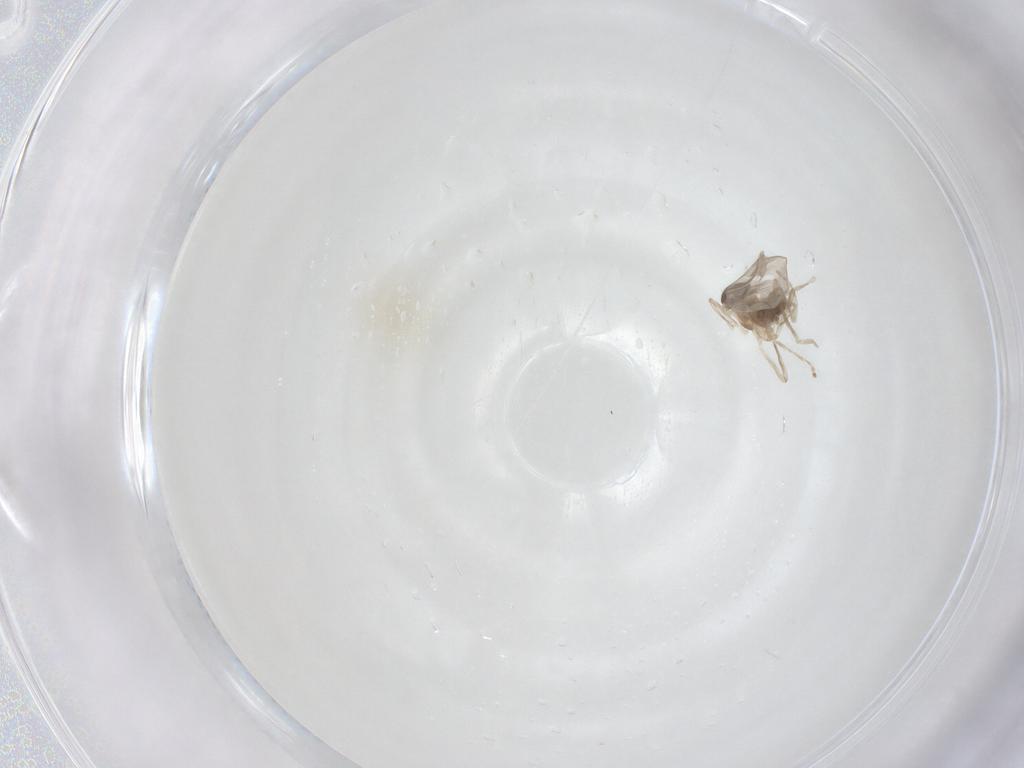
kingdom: Animalia
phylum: Arthropoda
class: Insecta
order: Diptera
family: Cecidomyiidae
